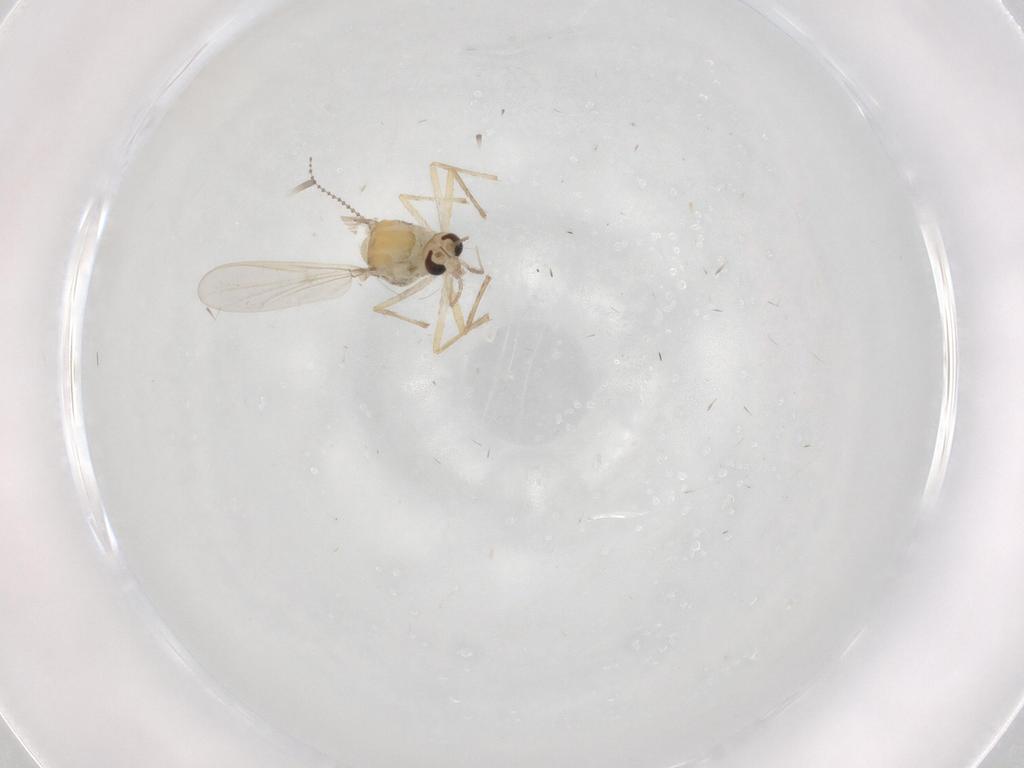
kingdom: Animalia
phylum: Arthropoda
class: Insecta
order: Diptera
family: Chironomidae
